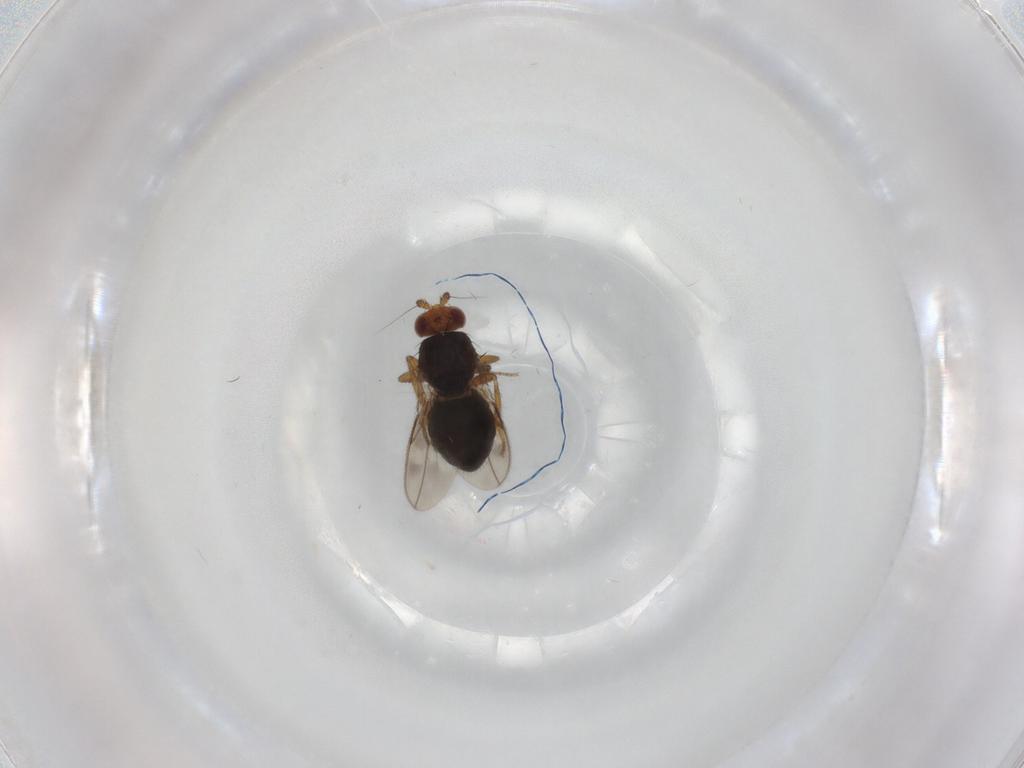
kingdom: Animalia
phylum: Arthropoda
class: Insecta
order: Diptera
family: Psychodidae
